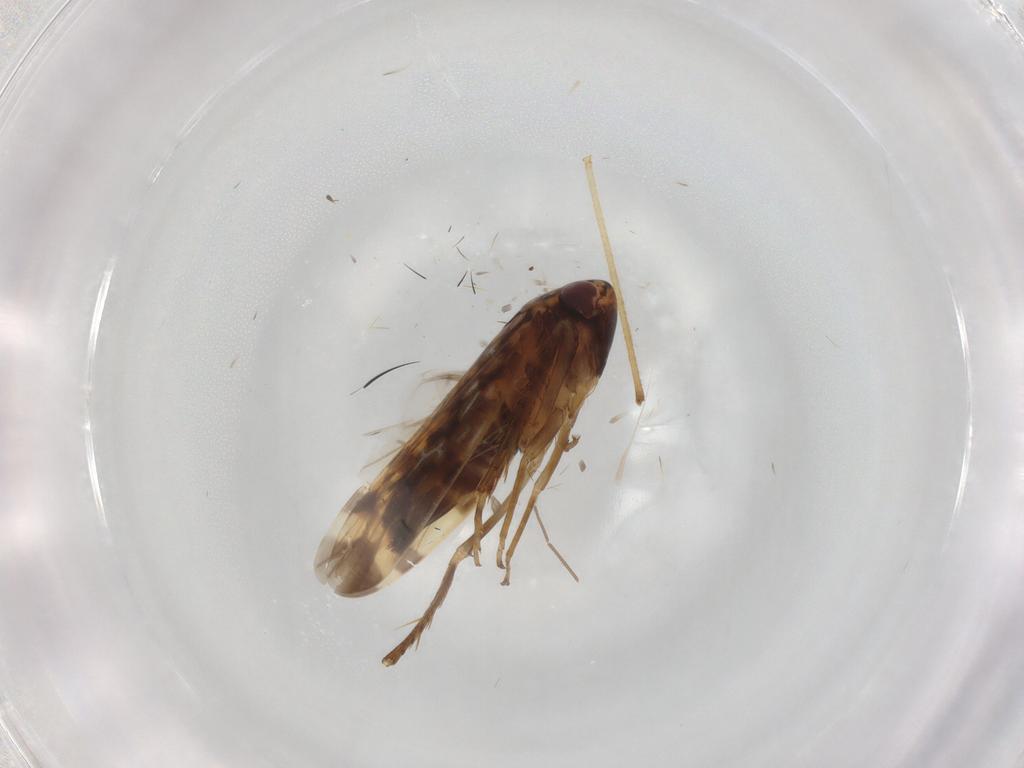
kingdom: Animalia
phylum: Arthropoda
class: Insecta
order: Hemiptera
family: Cicadellidae
